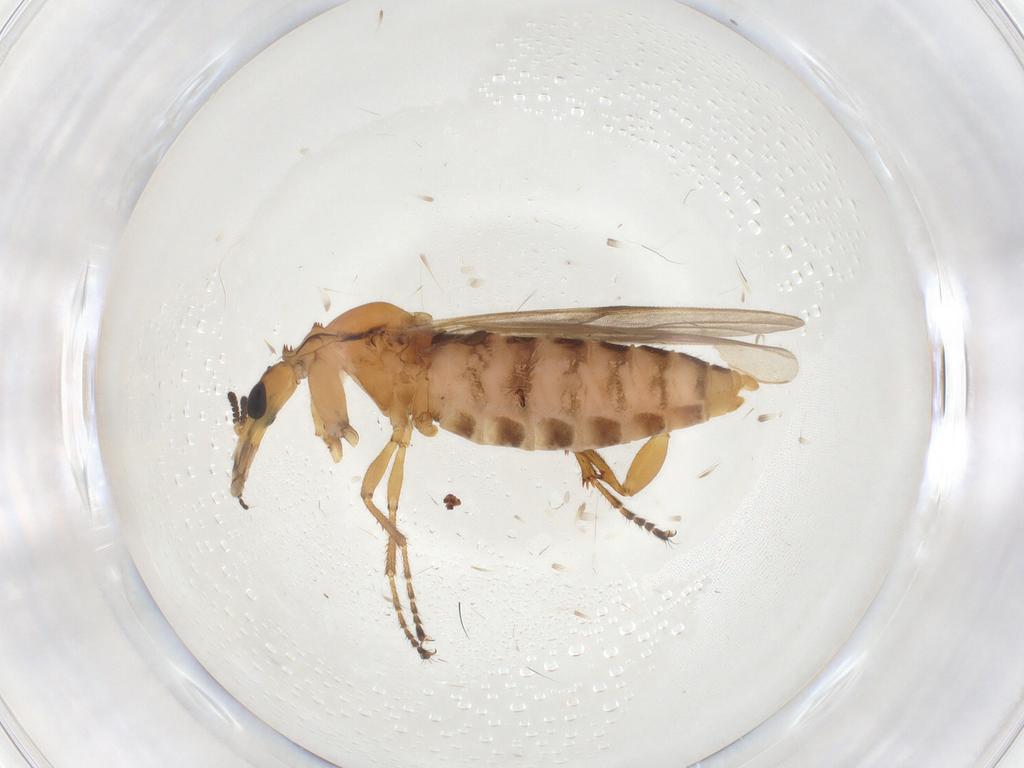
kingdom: Animalia
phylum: Arthropoda
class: Insecta
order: Diptera
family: Bibionidae
